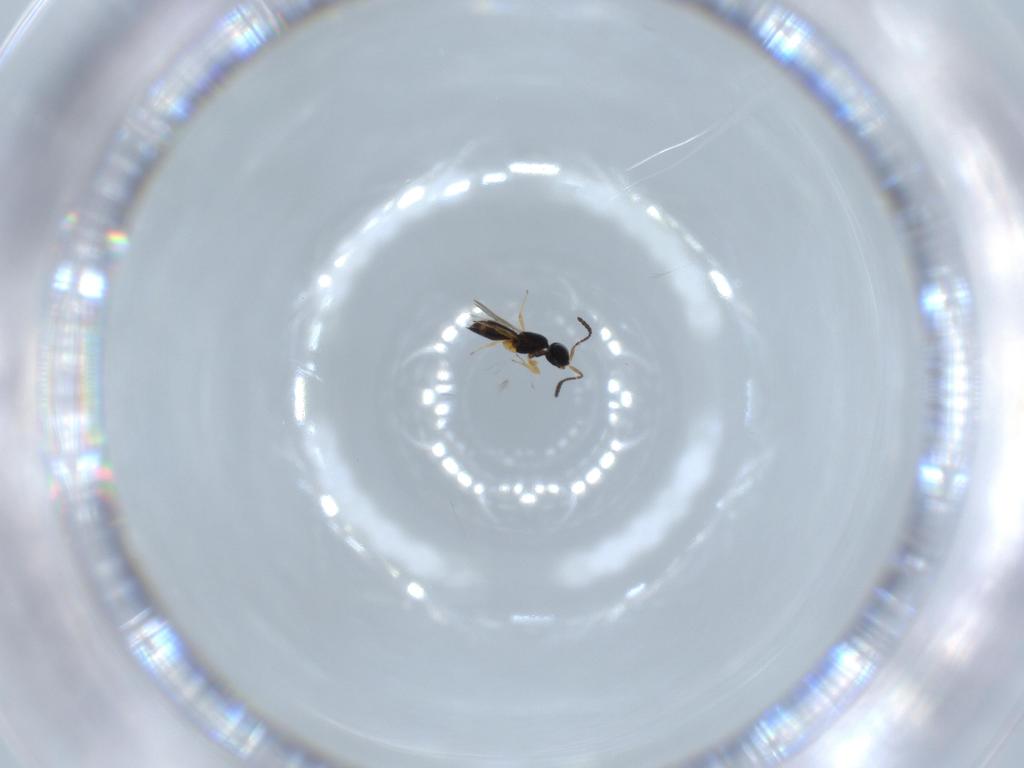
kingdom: Animalia
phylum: Arthropoda
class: Insecta
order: Hymenoptera
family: Scelionidae
